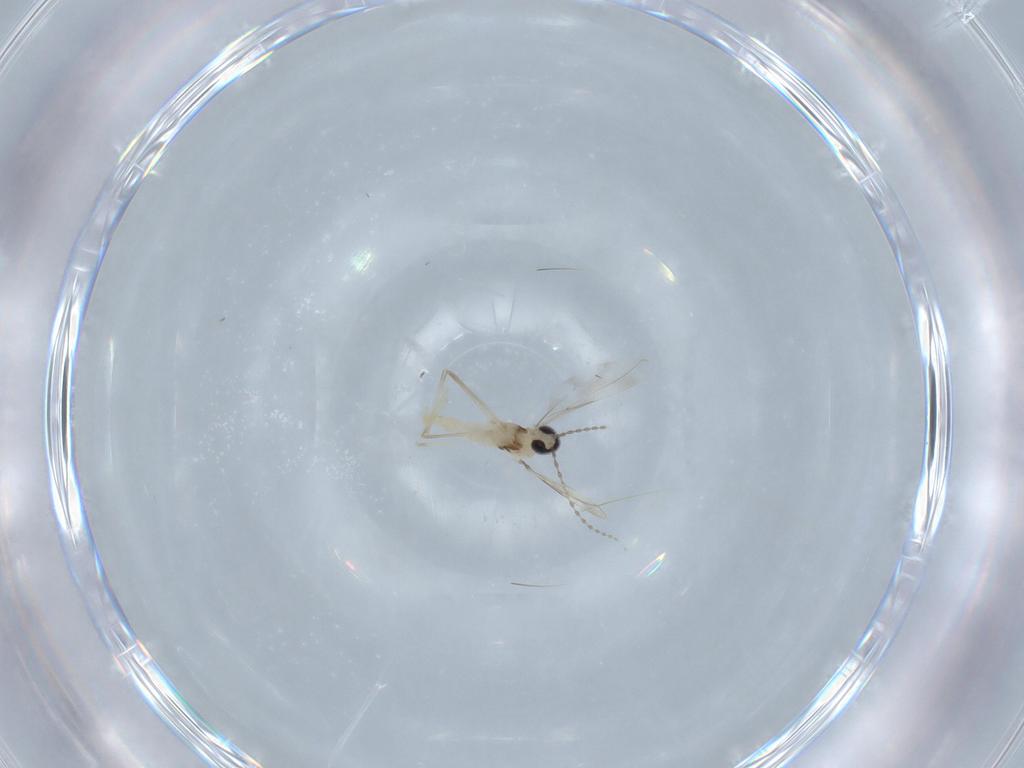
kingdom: Animalia
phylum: Arthropoda
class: Insecta
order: Diptera
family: Cecidomyiidae
